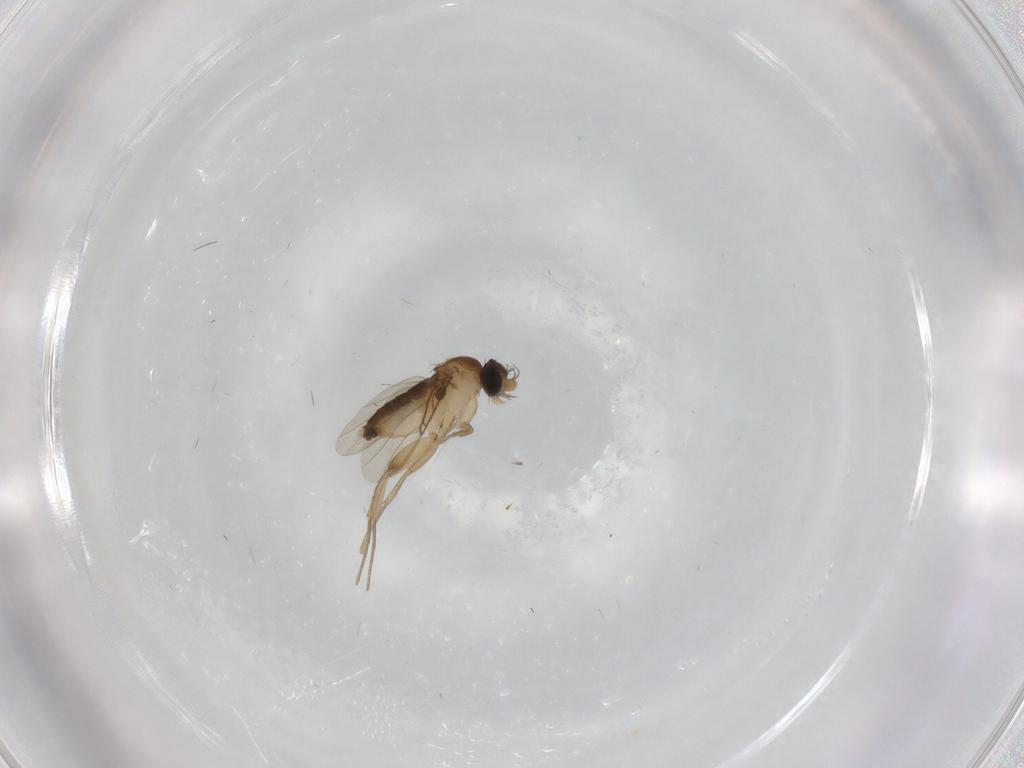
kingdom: Animalia
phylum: Arthropoda
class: Insecta
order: Diptera
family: Phoridae
